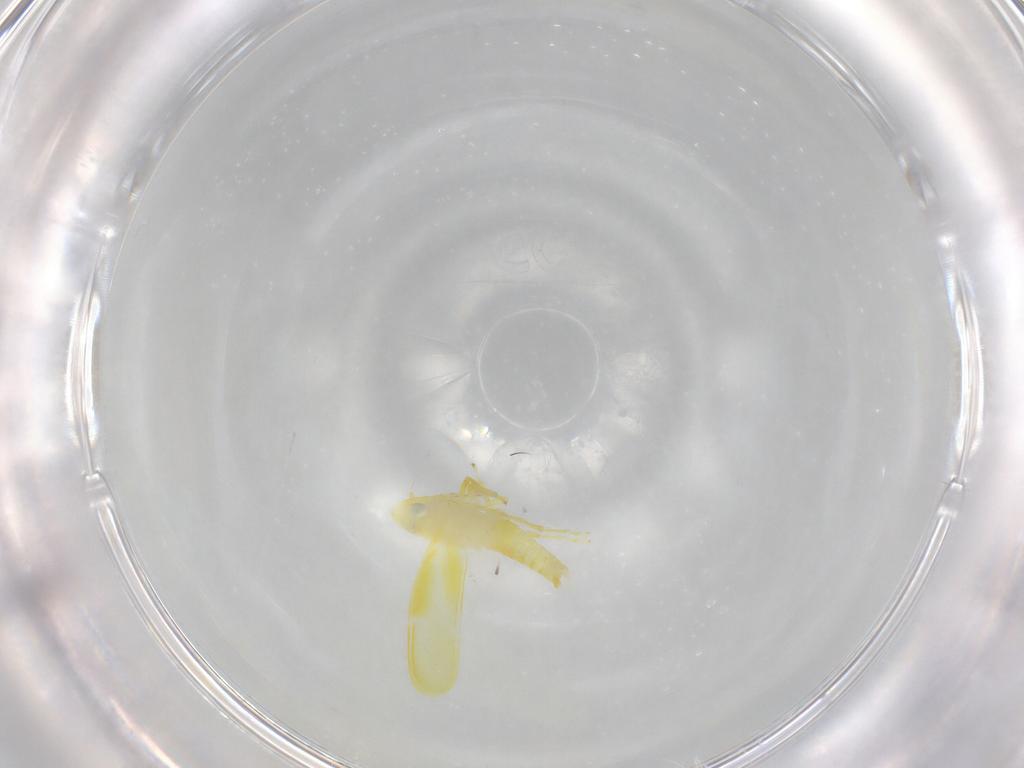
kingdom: Animalia
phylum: Arthropoda
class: Insecta
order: Hemiptera
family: Cicadellidae
